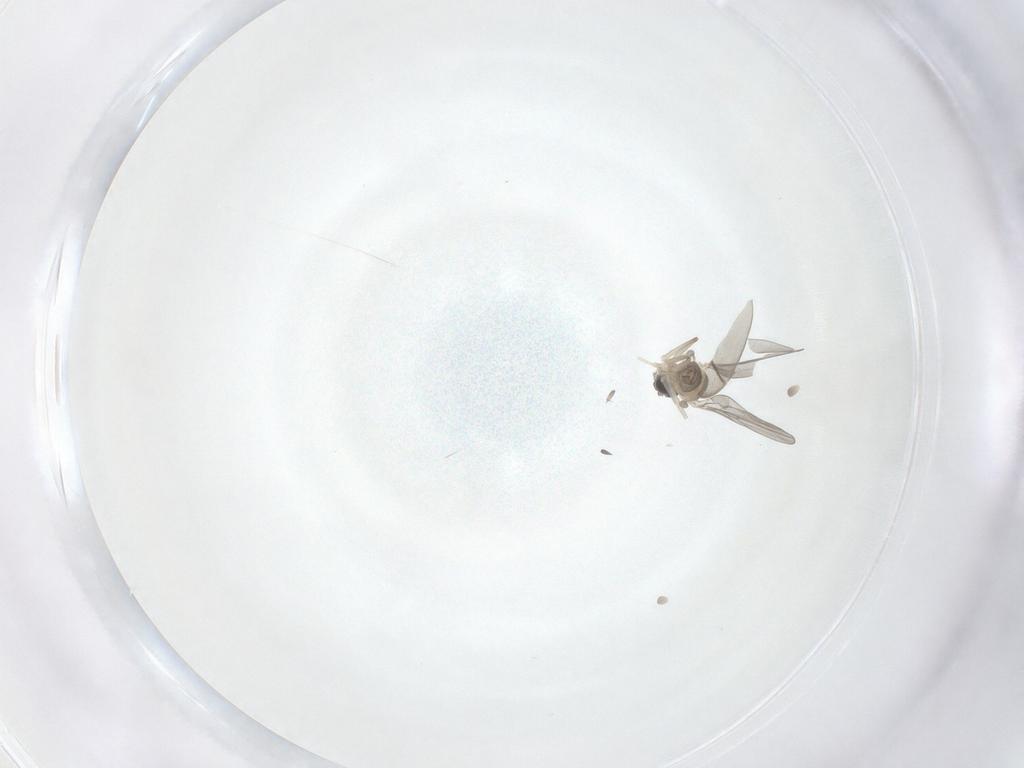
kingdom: Animalia
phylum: Arthropoda
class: Insecta
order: Diptera
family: Cecidomyiidae
